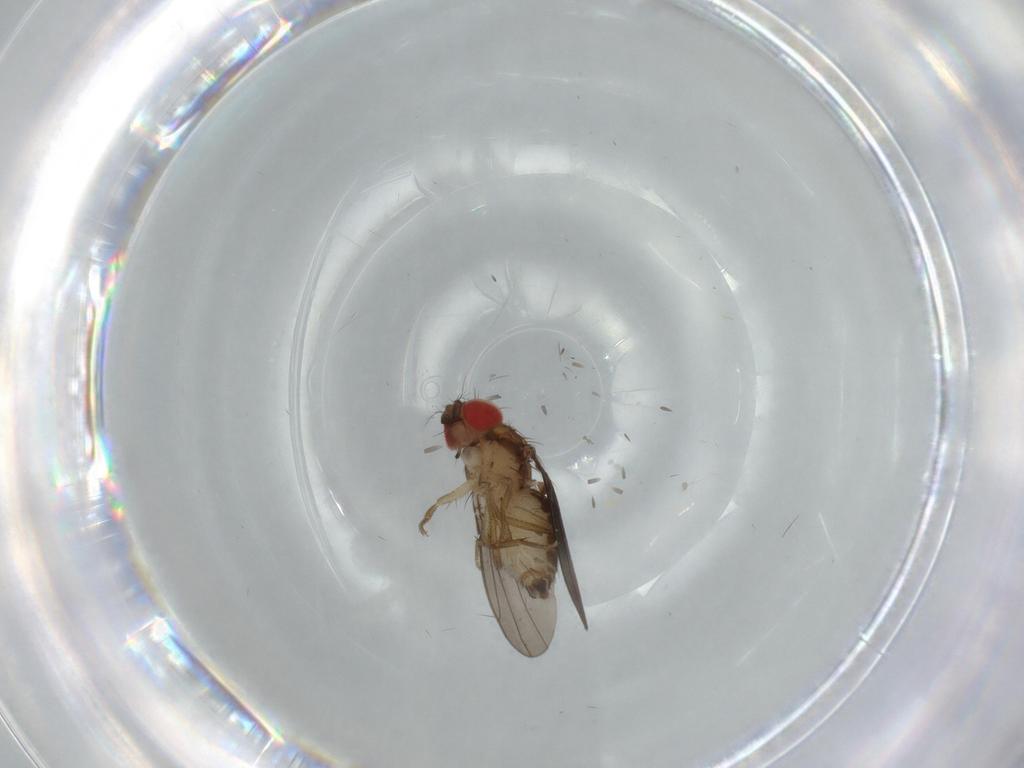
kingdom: Animalia
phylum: Arthropoda
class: Insecta
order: Diptera
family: Drosophilidae
